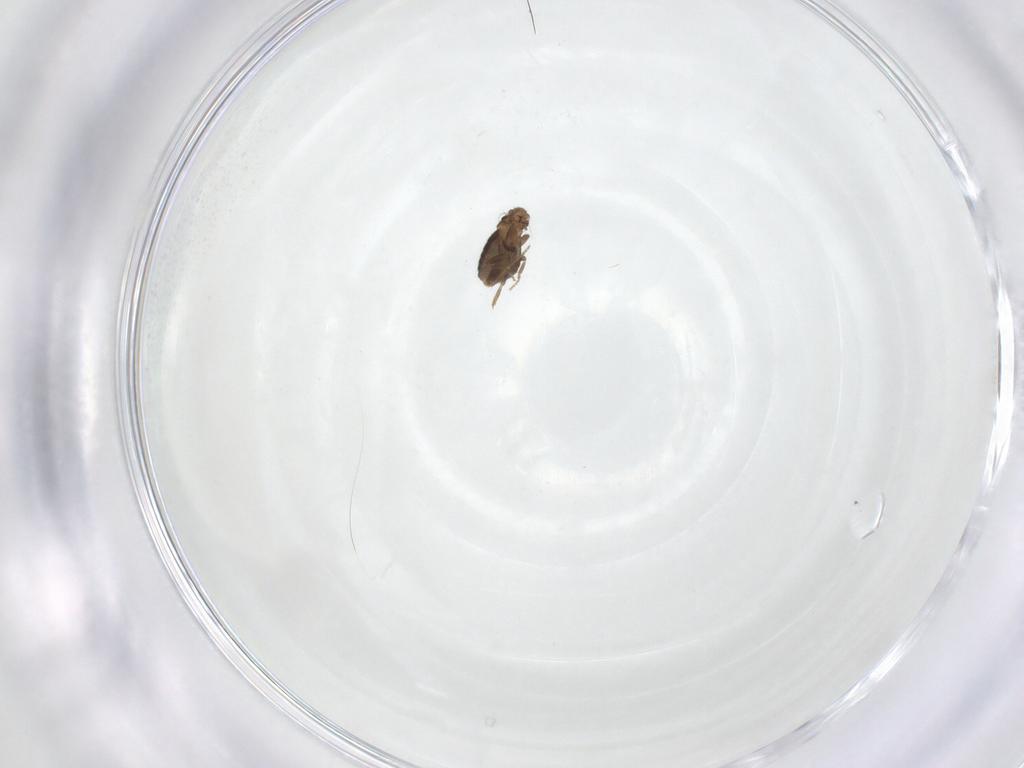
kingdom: Animalia
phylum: Arthropoda
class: Insecta
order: Diptera
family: Phoridae
